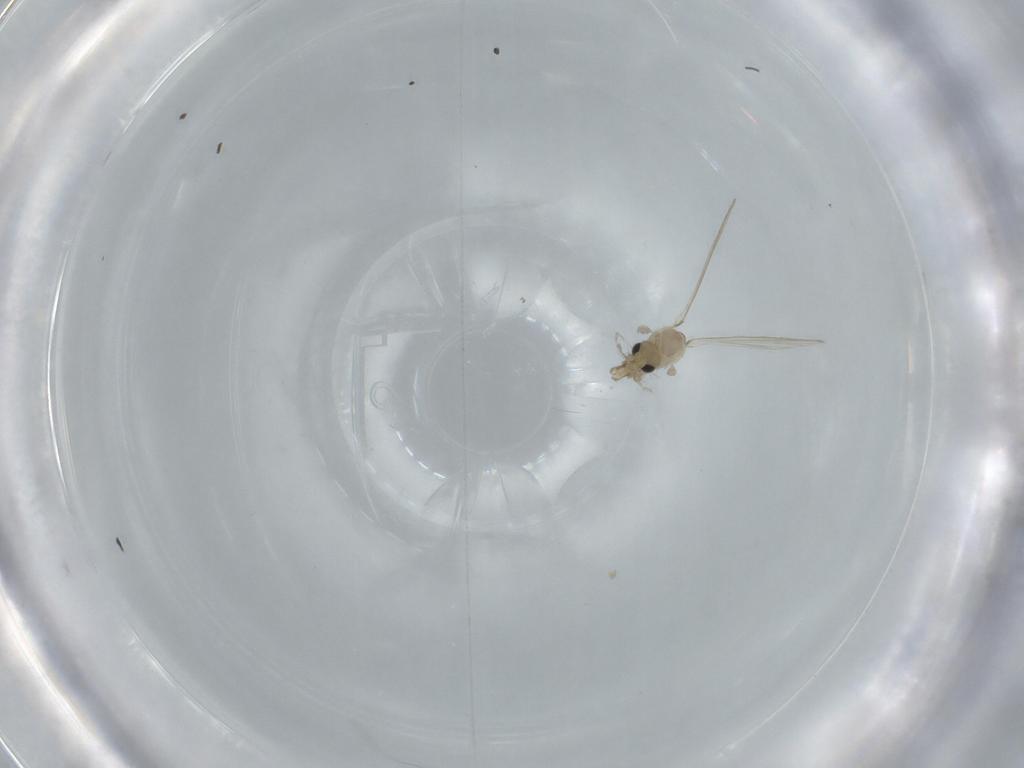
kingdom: Animalia
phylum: Arthropoda
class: Insecta
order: Diptera
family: Psychodidae
